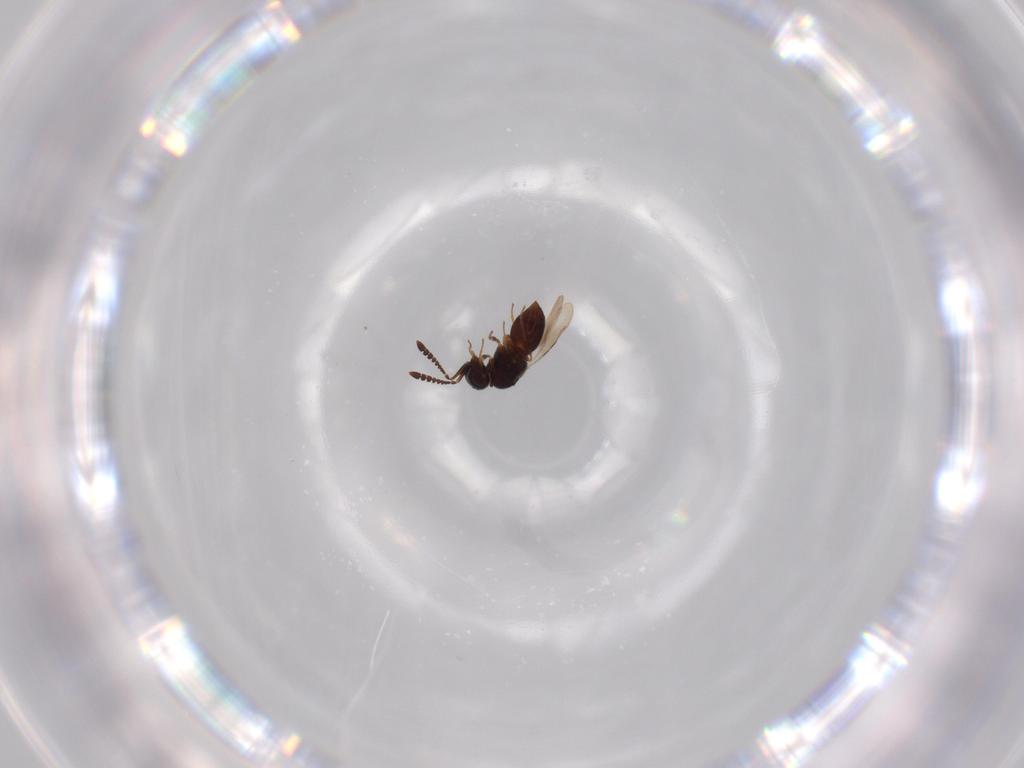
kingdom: Animalia
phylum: Arthropoda
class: Insecta
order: Hymenoptera
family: Ceraphronidae
